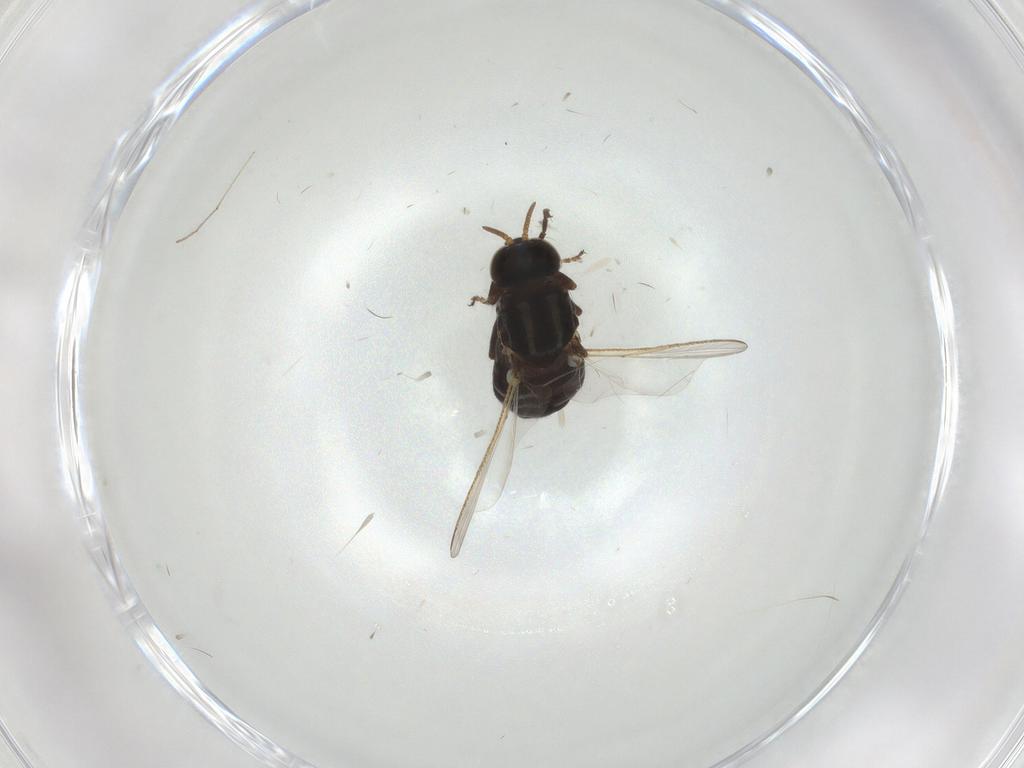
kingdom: Animalia
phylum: Arthropoda
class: Insecta
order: Diptera
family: Simuliidae
